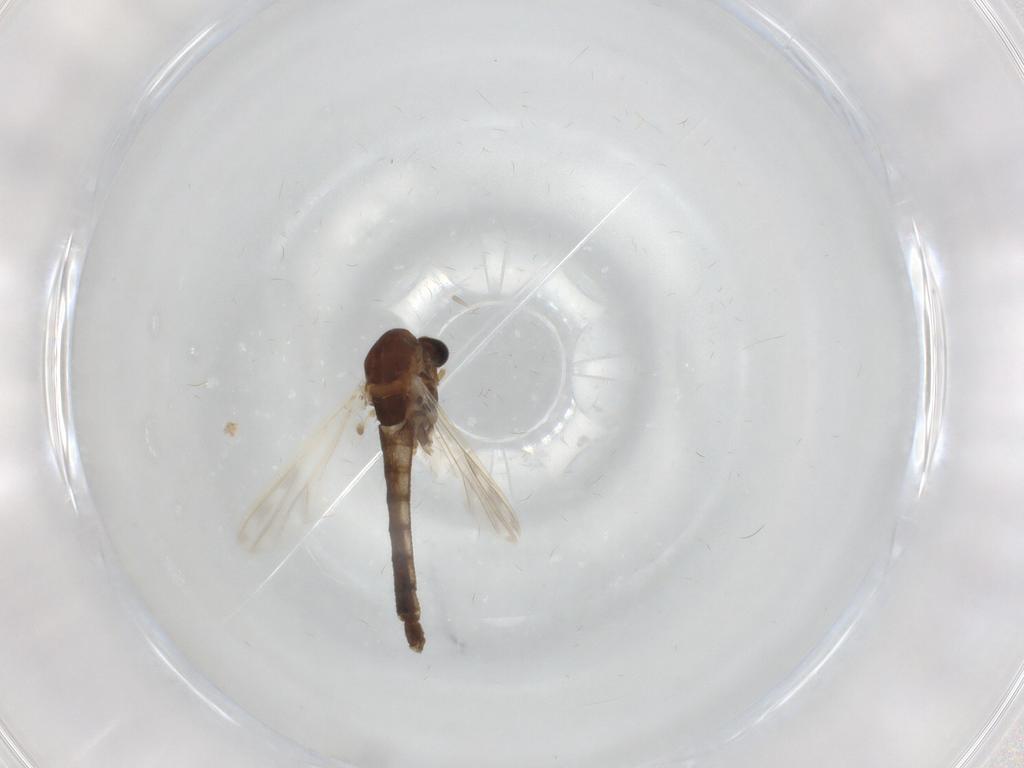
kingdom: Animalia
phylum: Arthropoda
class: Insecta
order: Diptera
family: Chironomidae
